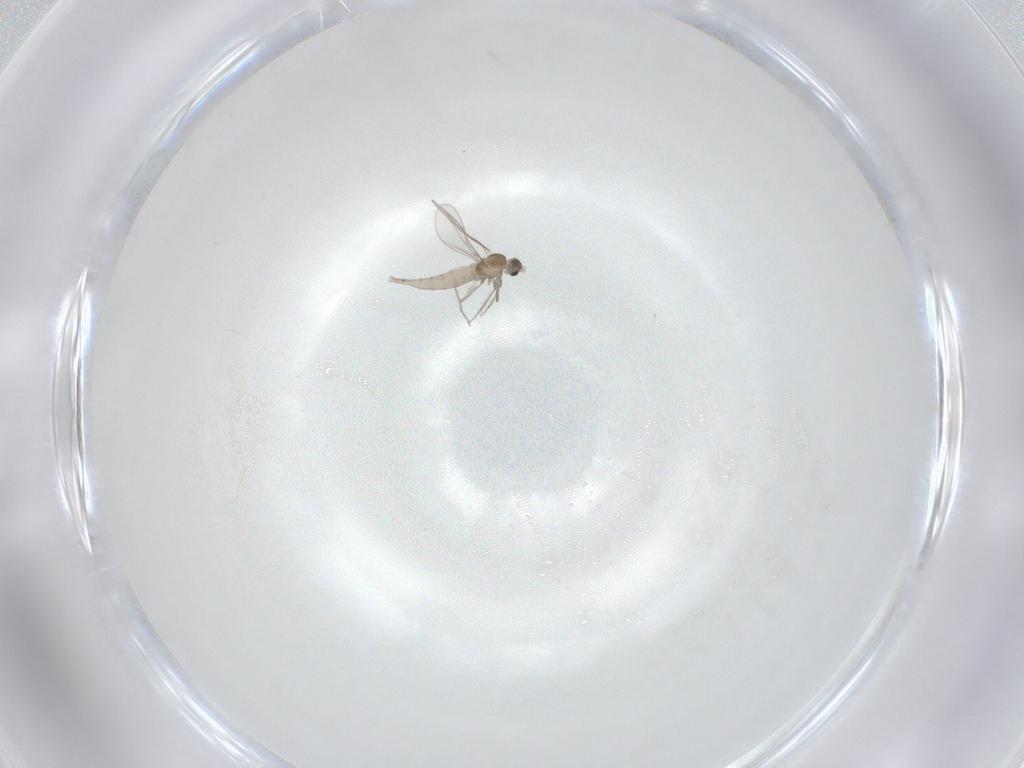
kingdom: Animalia
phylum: Arthropoda
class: Insecta
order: Diptera
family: Cecidomyiidae
